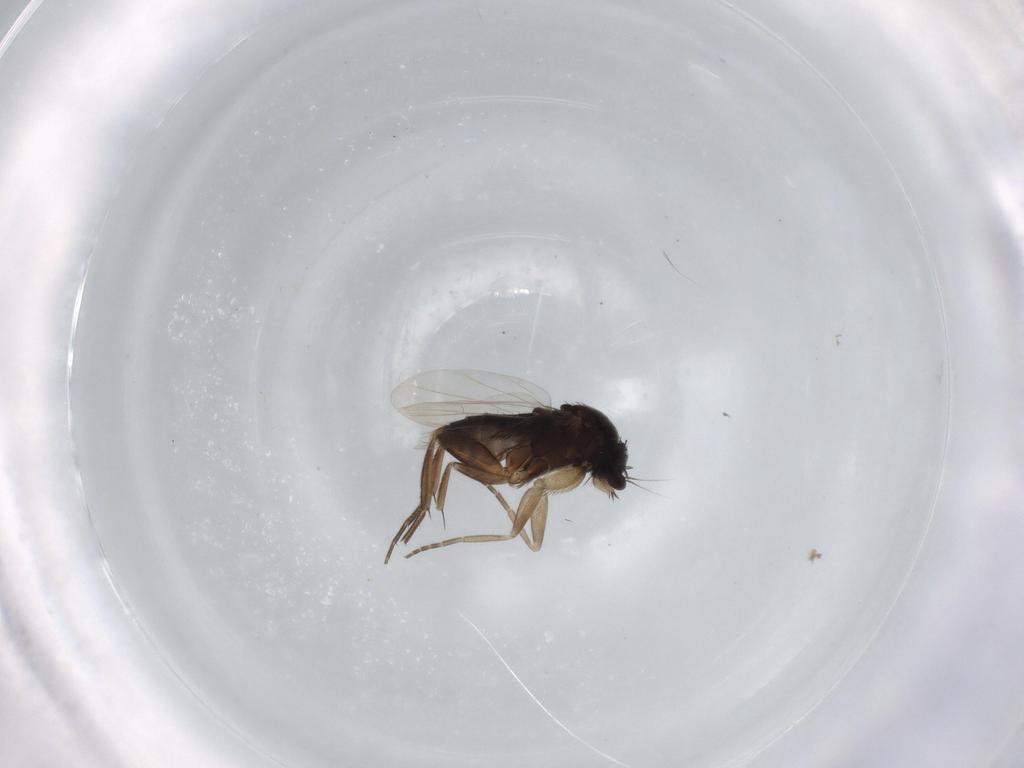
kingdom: Animalia
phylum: Arthropoda
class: Insecta
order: Diptera
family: Phoridae
